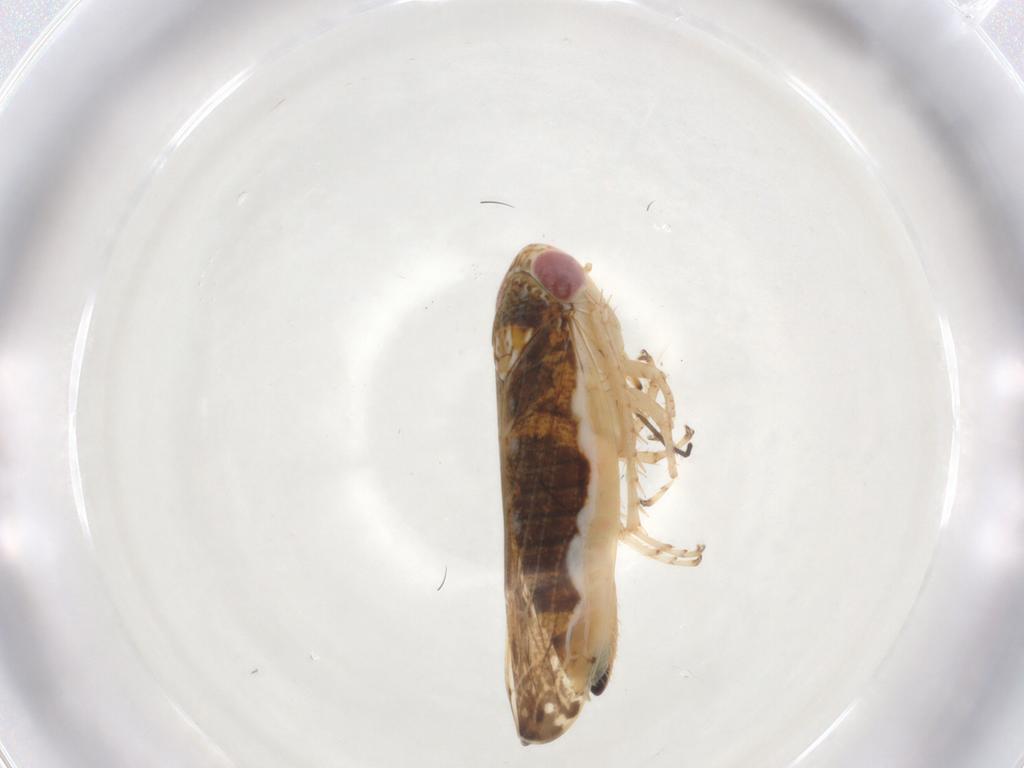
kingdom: Animalia
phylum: Arthropoda
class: Insecta
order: Hemiptera
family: Cicadellidae
